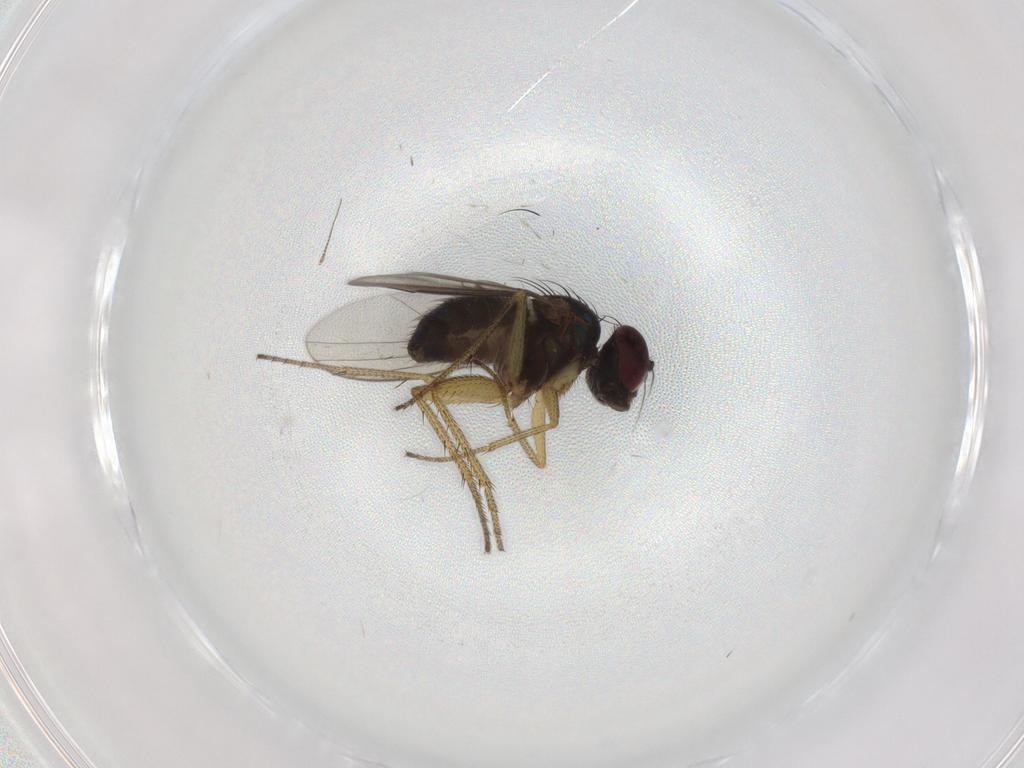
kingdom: Animalia
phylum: Arthropoda
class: Insecta
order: Diptera
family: Dolichopodidae
